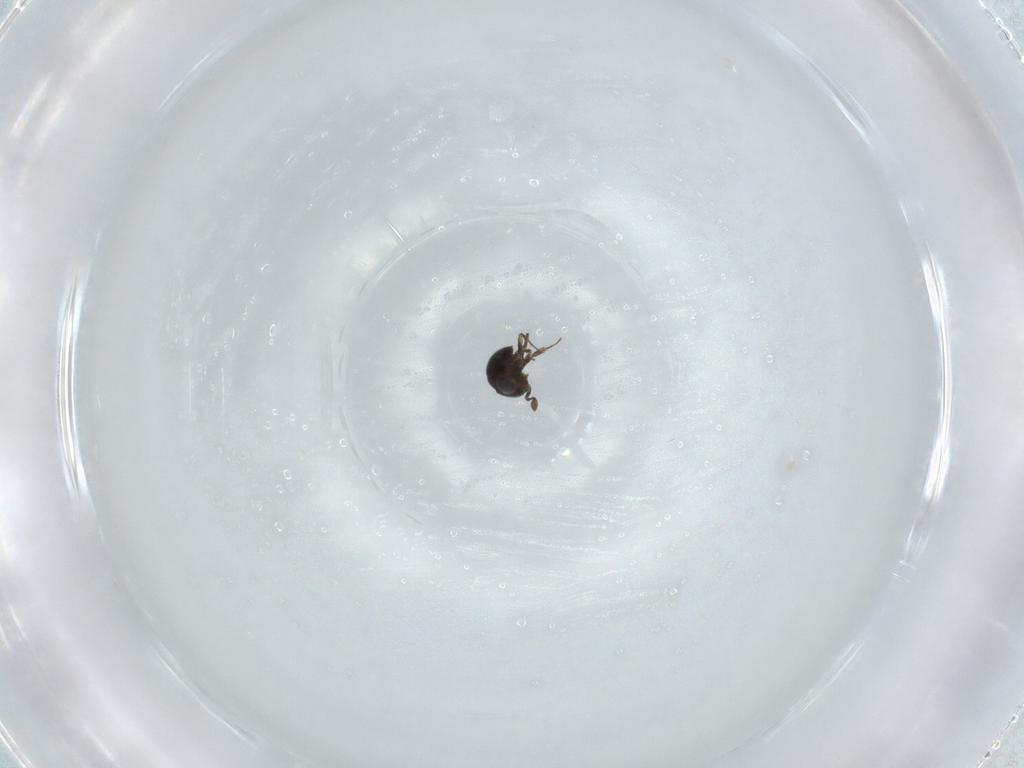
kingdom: Animalia
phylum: Arthropoda
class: Insecta
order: Hymenoptera
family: Scelionidae
